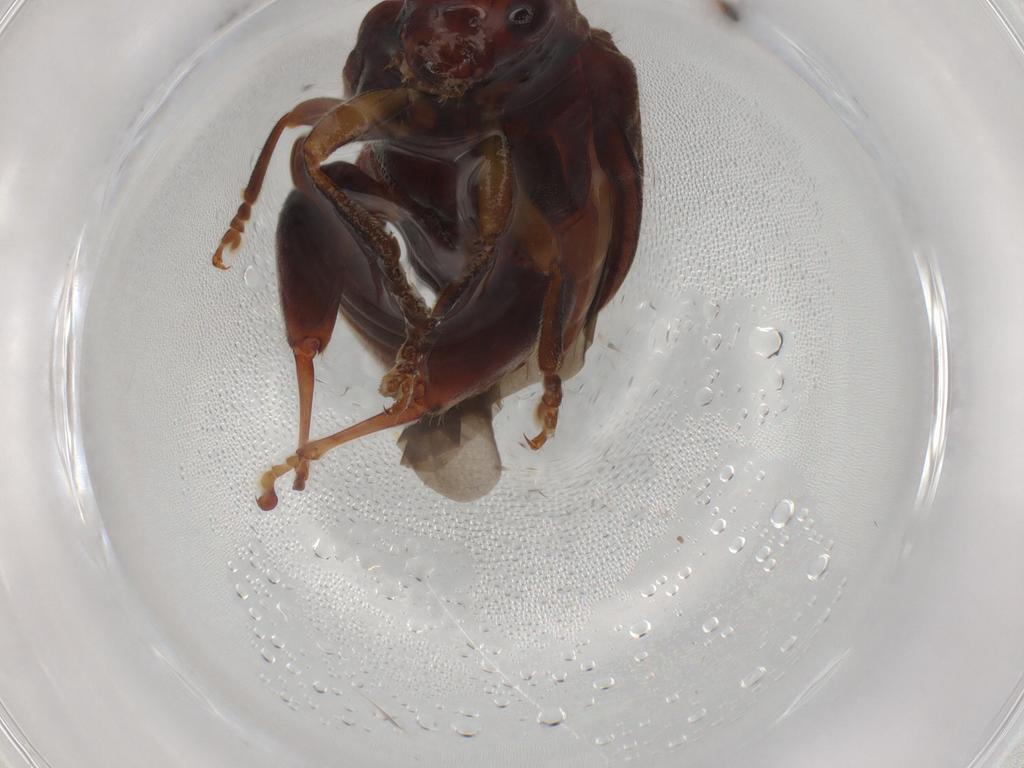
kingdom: Animalia
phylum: Arthropoda
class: Insecta
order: Coleoptera
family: Chrysomelidae
